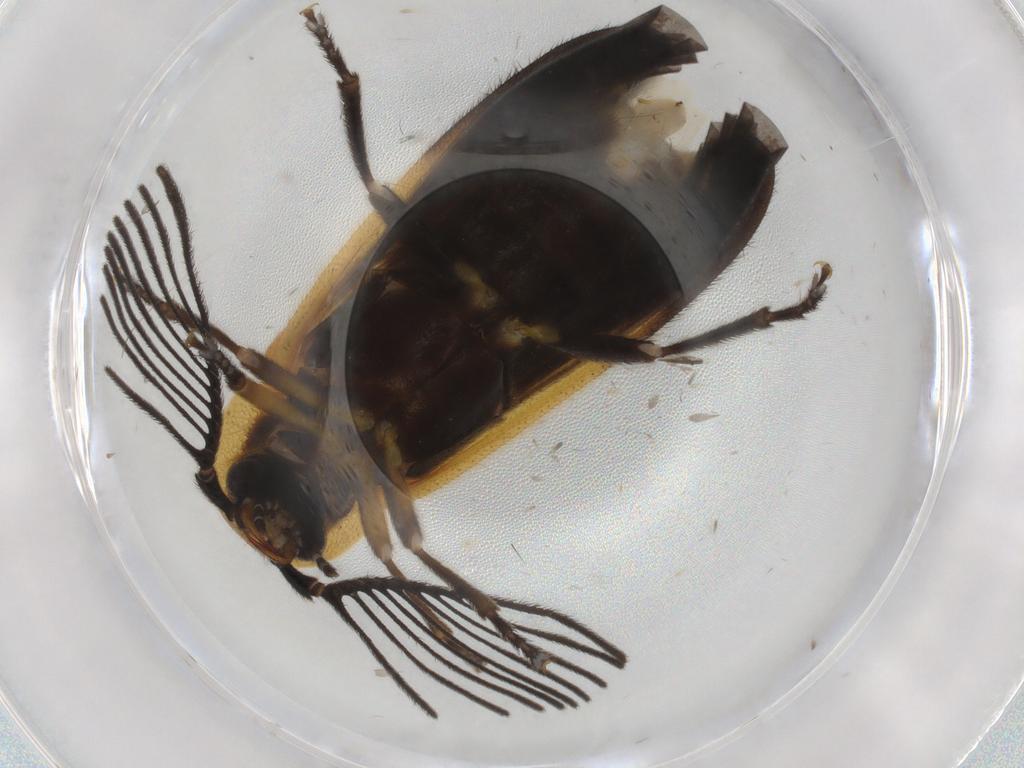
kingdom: Animalia
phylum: Arthropoda
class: Insecta
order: Coleoptera
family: Lampyridae
